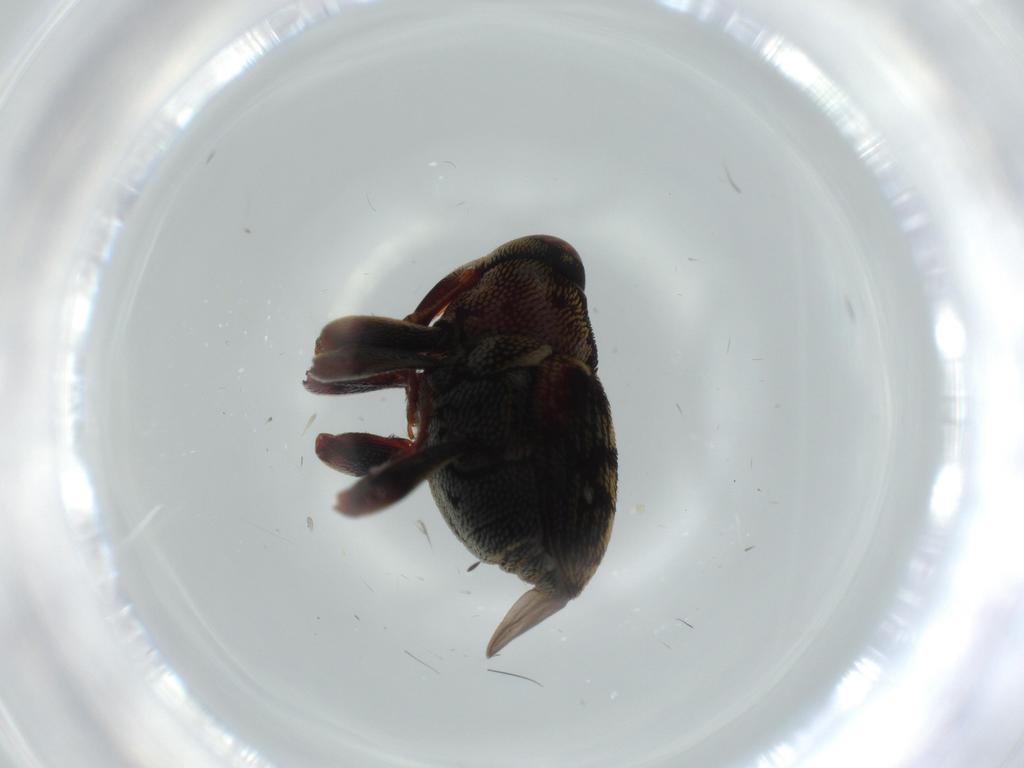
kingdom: Animalia
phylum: Arthropoda
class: Insecta
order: Coleoptera
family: Curculionidae
